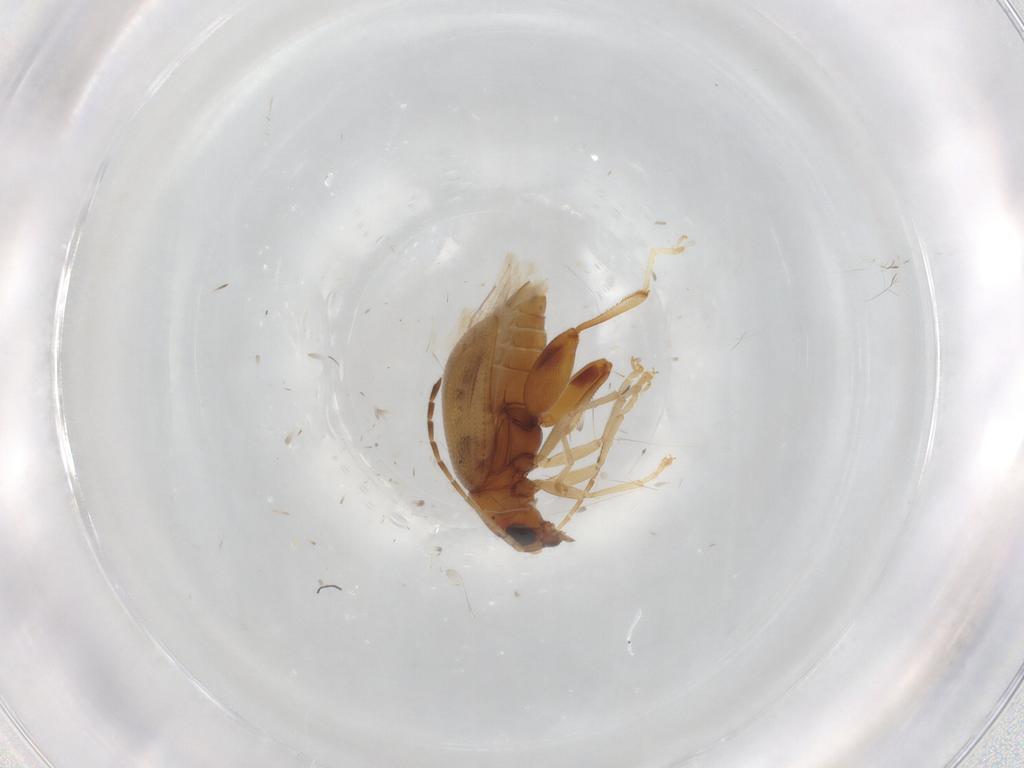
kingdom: Animalia
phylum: Arthropoda
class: Insecta
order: Coleoptera
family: Chrysomelidae
